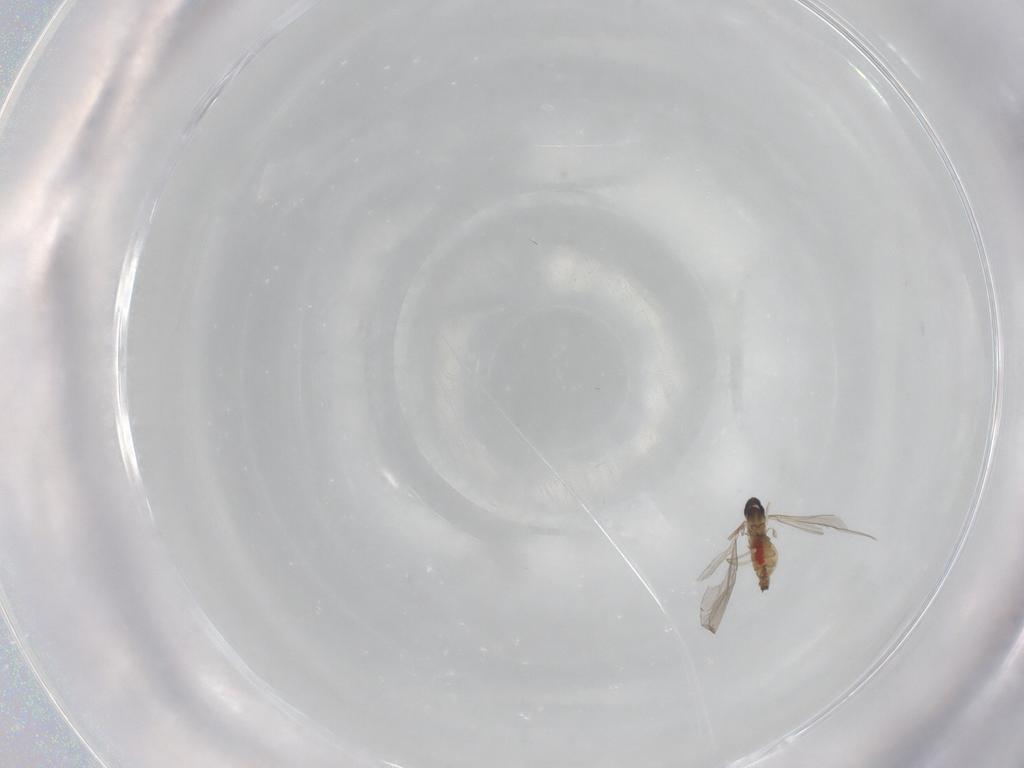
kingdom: Animalia
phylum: Arthropoda
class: Insecta
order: Diptera
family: Cecidomyiidae
